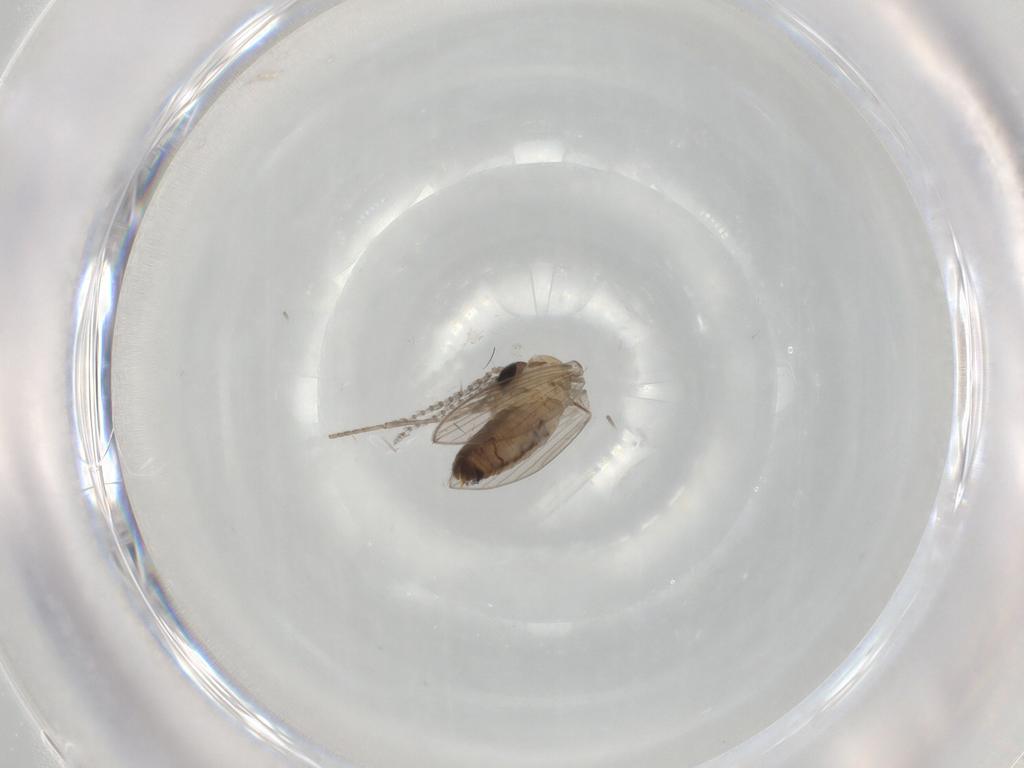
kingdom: Animalia
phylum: Arthropoda
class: Insecta
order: Diptera
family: Psychodidae
